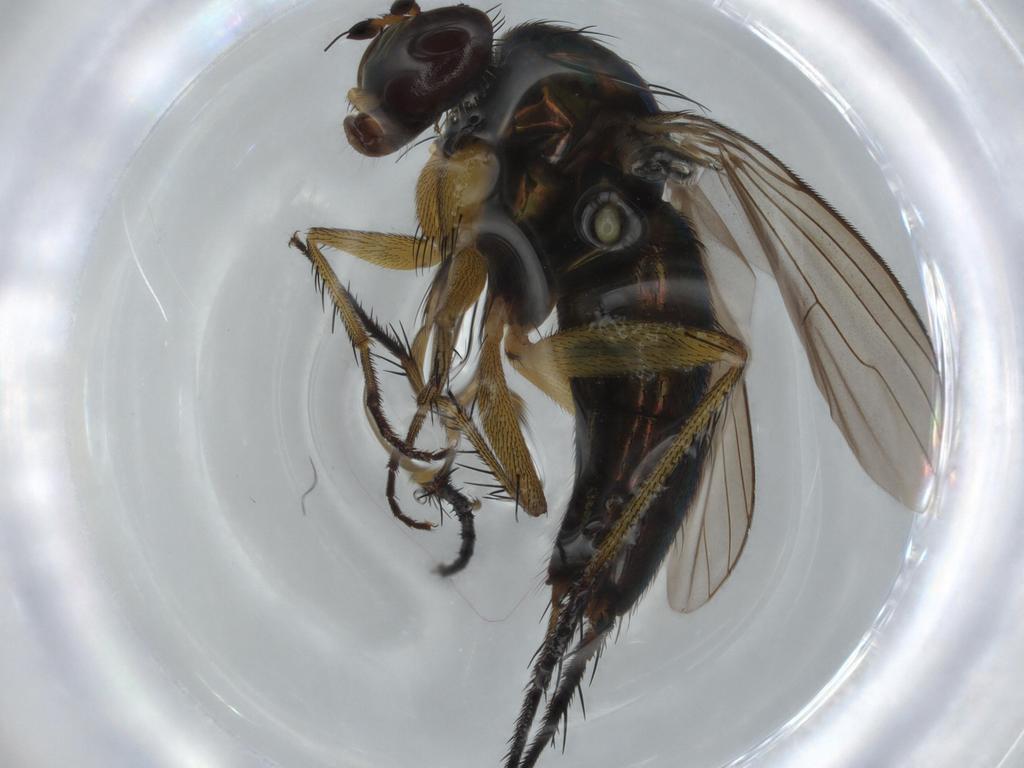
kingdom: Animalia
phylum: Arthropoda
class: Insecta
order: Diptera
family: Dolichopodidae
